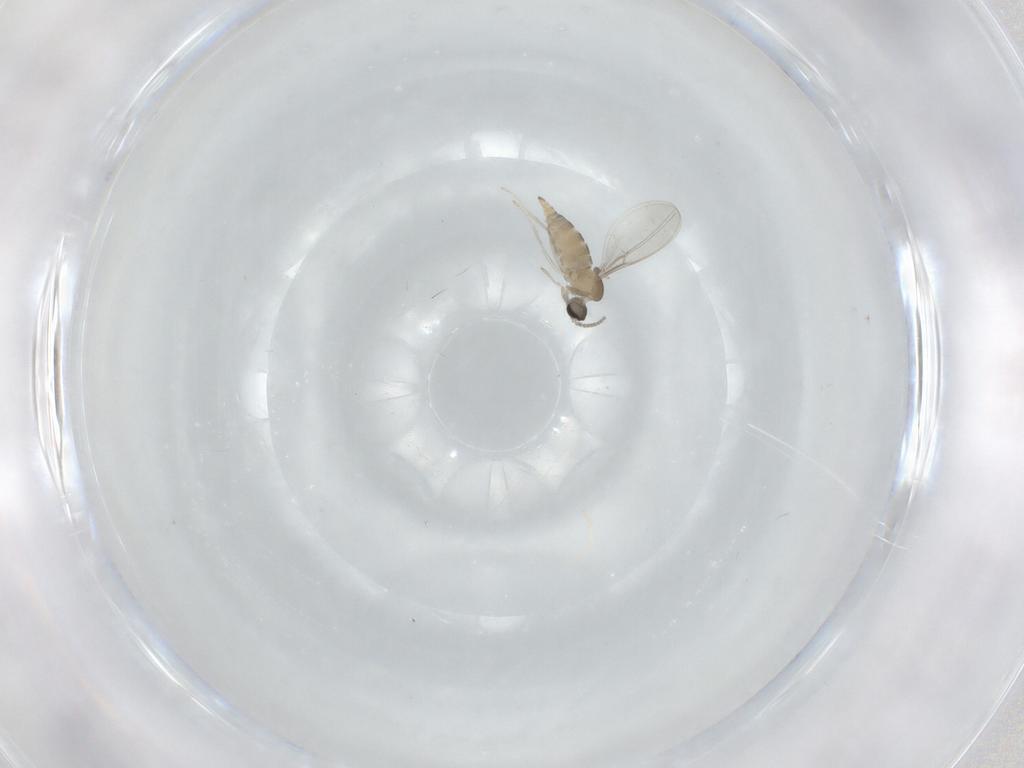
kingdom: Animalia
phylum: Arthropoda
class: Insecta
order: Diptera
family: Cecidomyiidae
